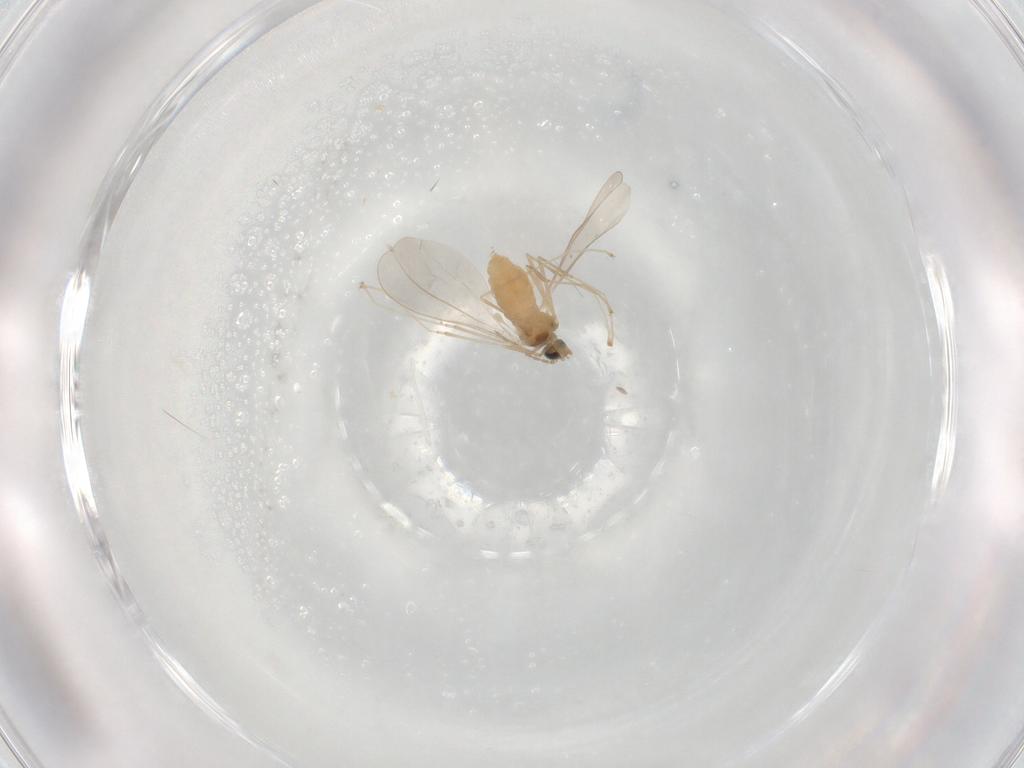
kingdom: Animalia
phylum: Arthropoda
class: Insecta
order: Diptera
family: Cecidomyiidae
